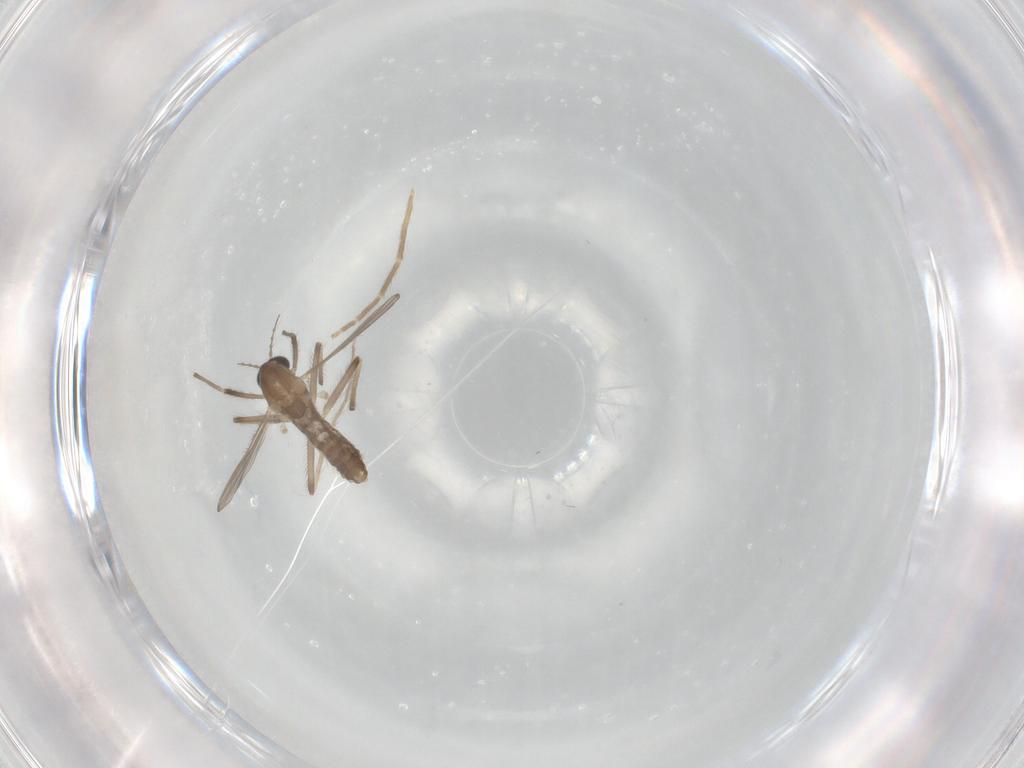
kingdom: Animalia
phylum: Arthropoda
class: Insecta
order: Diptera
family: Chironomidae
